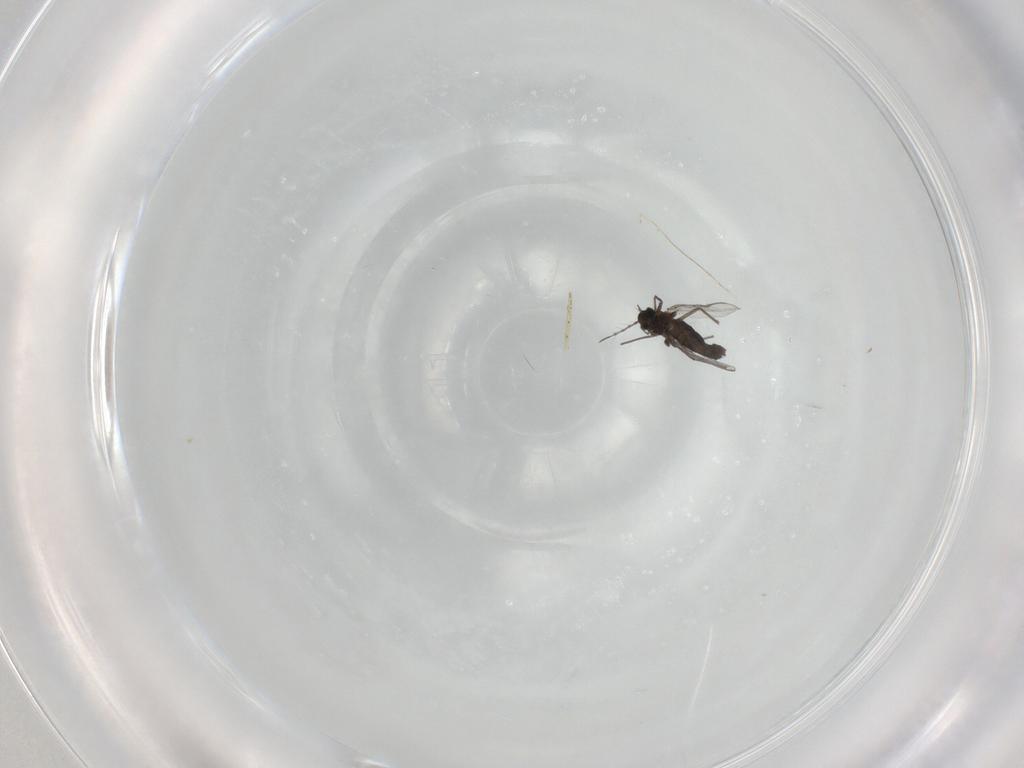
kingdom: Animalia
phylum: Arthropoda
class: Insecta
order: Diptera
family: Chironomidae
